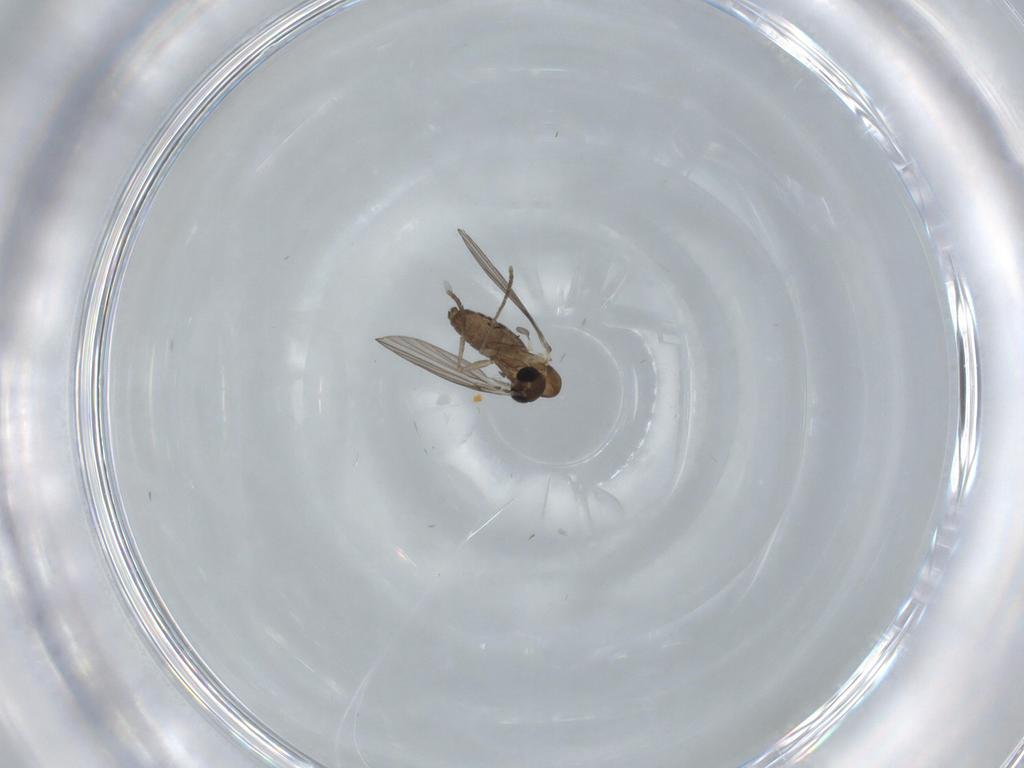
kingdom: Animalia
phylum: Arthropoda
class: Insecta
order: Diptera
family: Psychodidae
